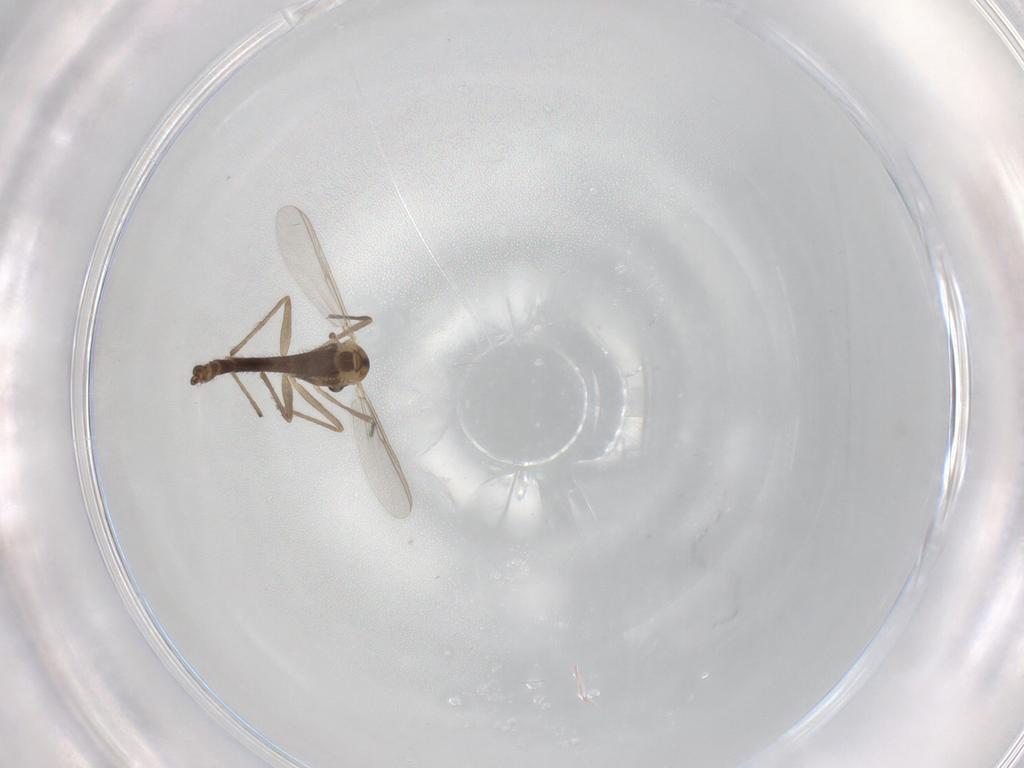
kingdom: Animalia
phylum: Arthropoda
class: Insecta
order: Diptera
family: Chironomidae
